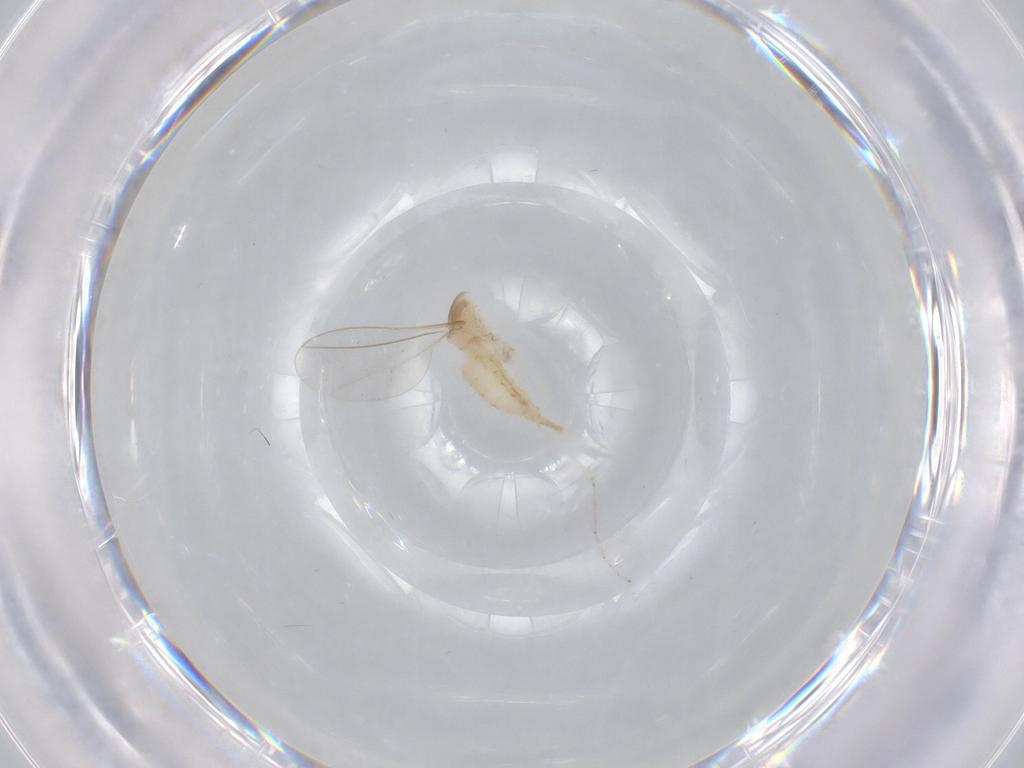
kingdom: Animalia
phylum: Arthropoda
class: Insecta
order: Diptera
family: Cecidomyiidae
